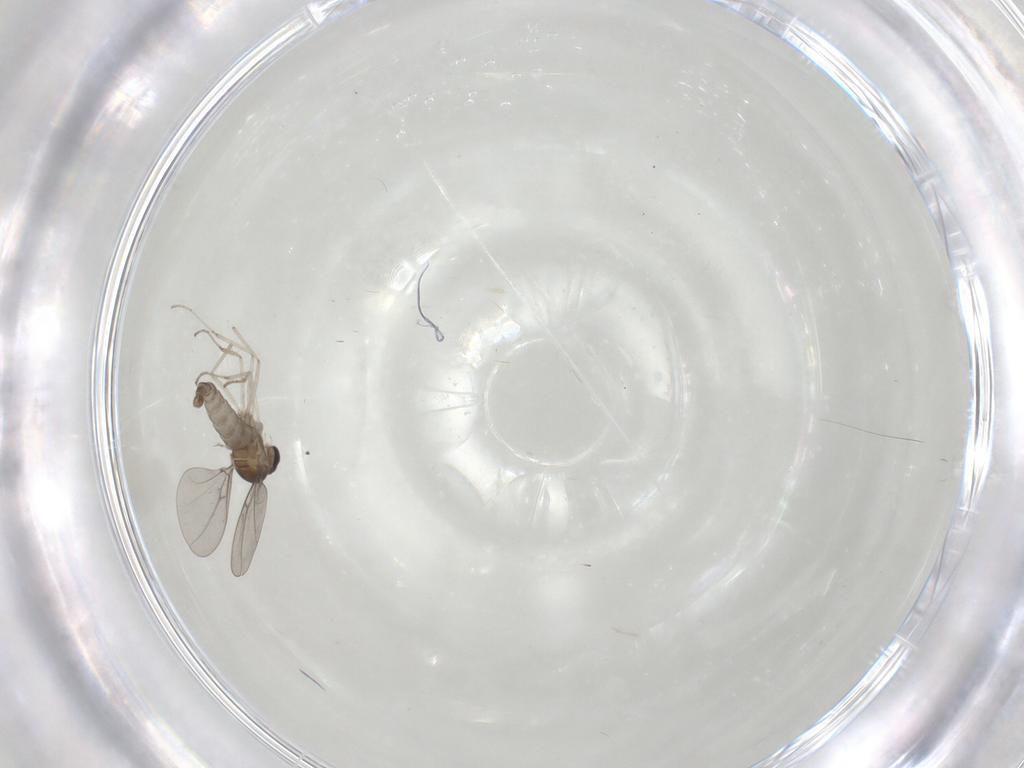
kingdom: Animalia
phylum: Arthropoda
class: Insecta
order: Diptera
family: Cecidomyiidae
